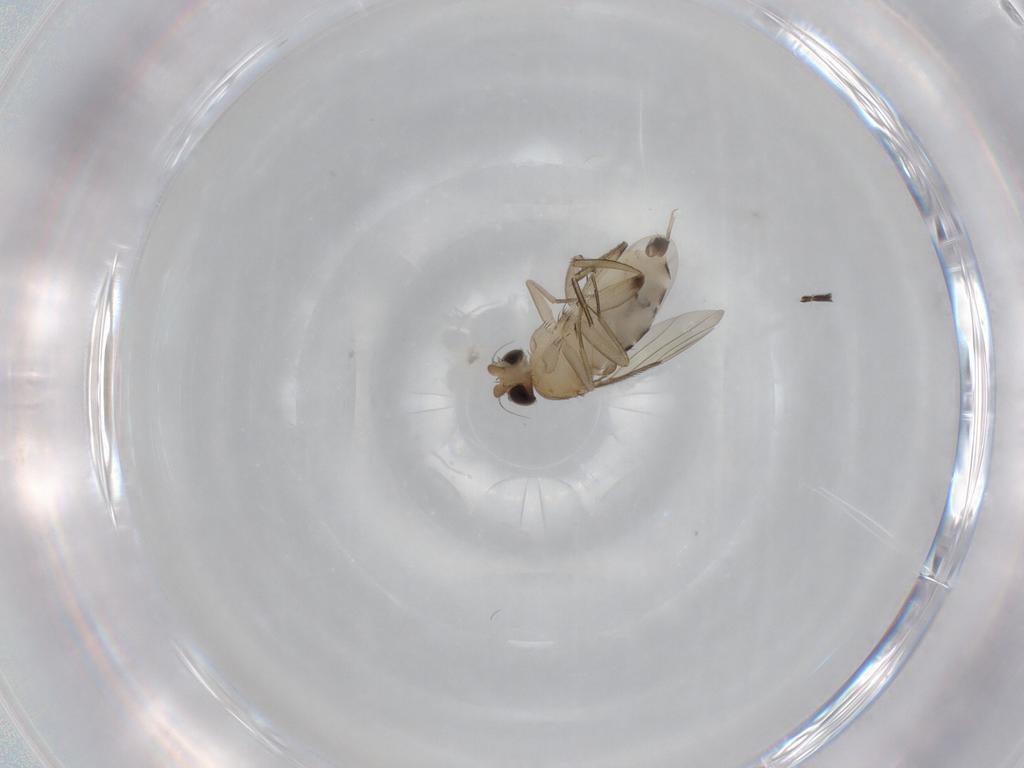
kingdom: Animalia
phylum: Arthropoda
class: Insecta
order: Diptera
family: Phoridae
